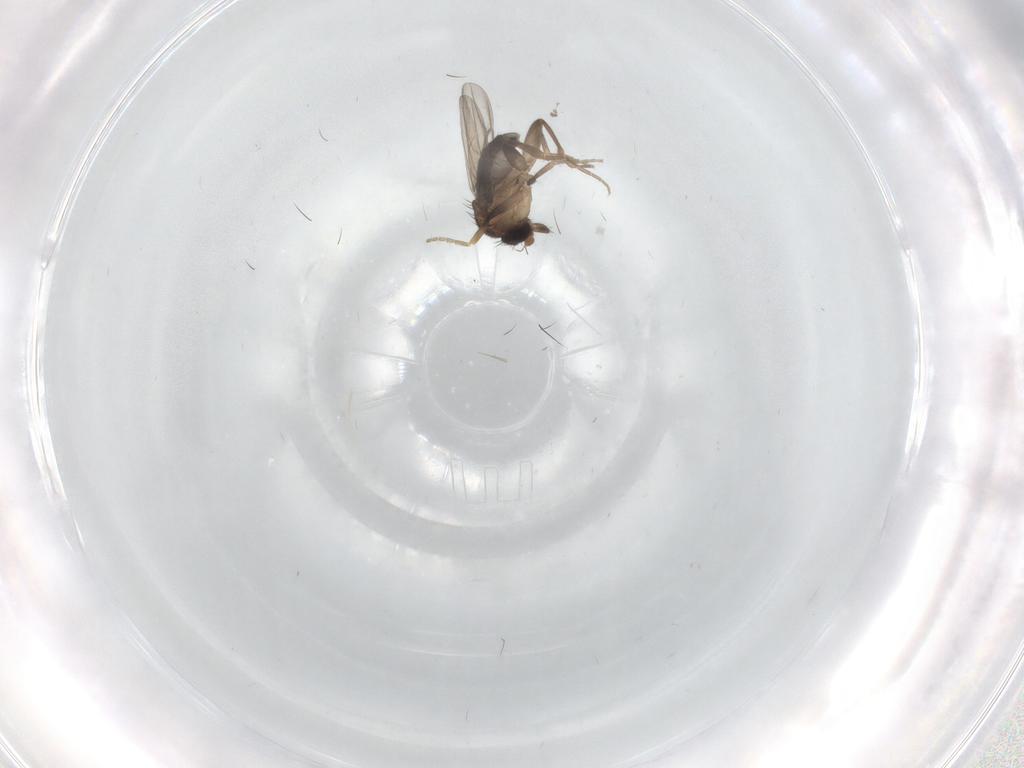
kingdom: Animalia
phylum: Arthropoda
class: Insecta
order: Diptera
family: Phoridae
